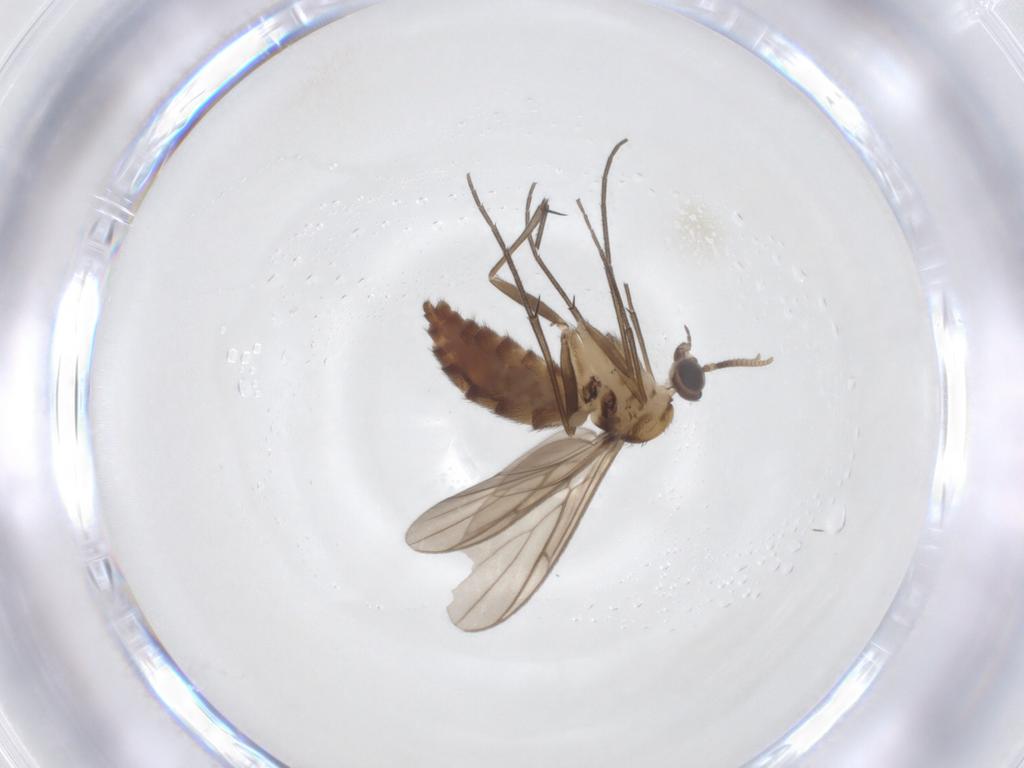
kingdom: Animalia
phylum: Arthropoda
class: Insecta
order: Diptera
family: Keroplatidae
